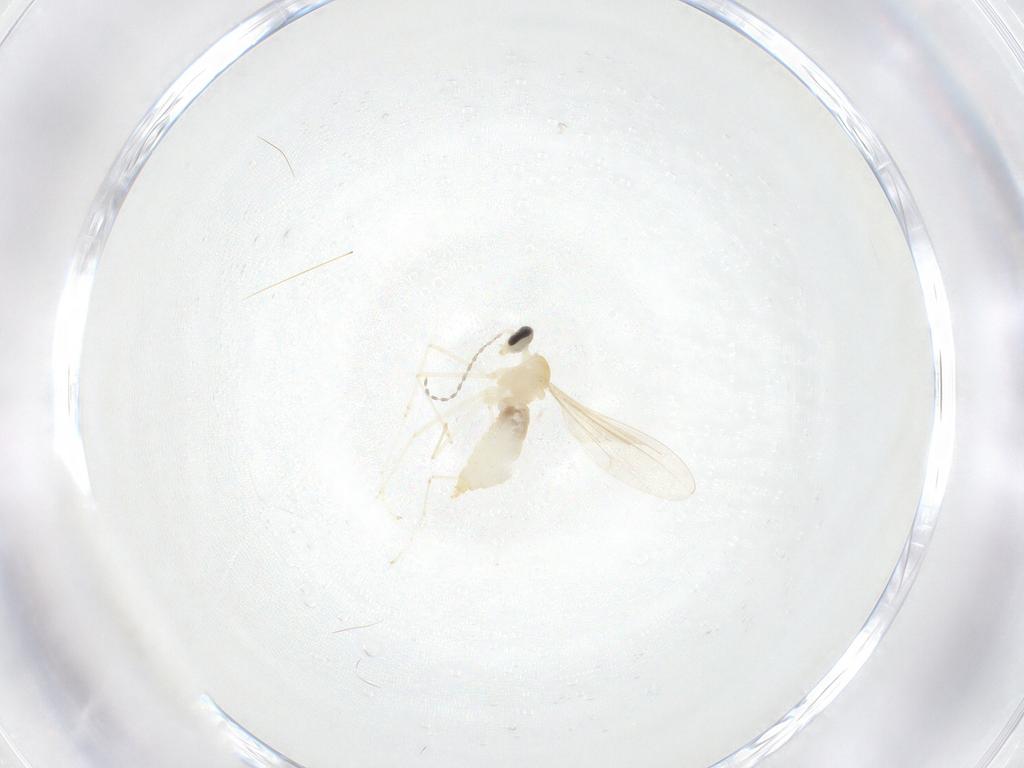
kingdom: Animalia
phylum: Arthropoda
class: Insecta
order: Diptera
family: Cecidomyiidae
